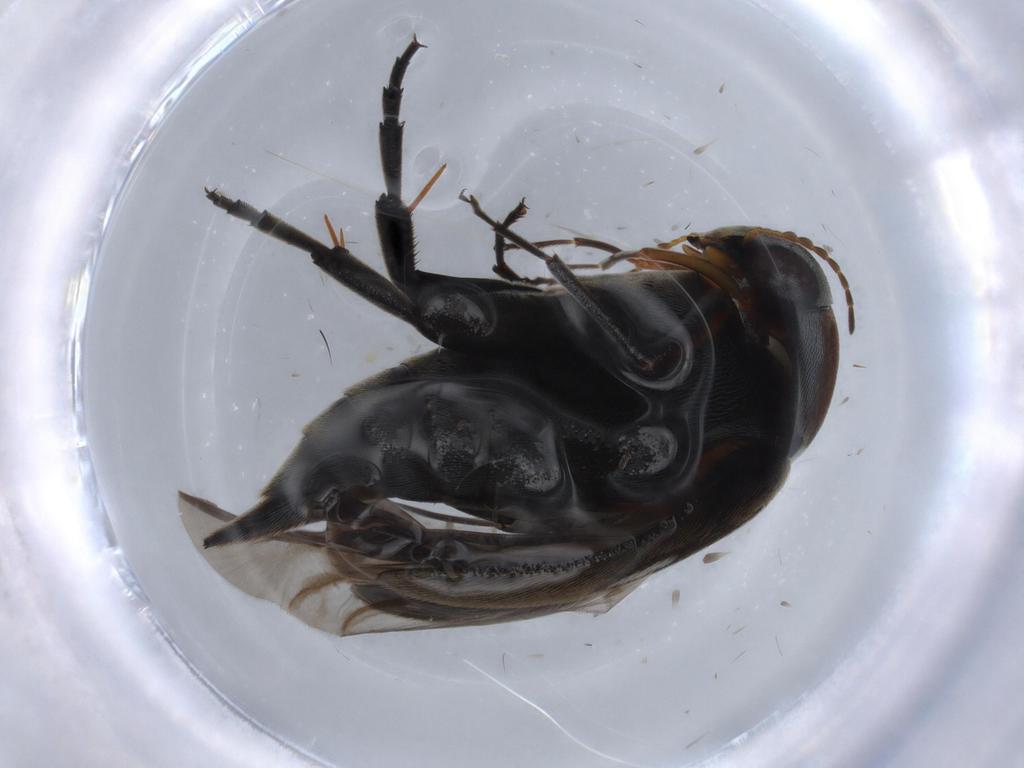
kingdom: Animalia
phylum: Arthropoda
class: Insecta
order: Coleoptera
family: Mordellidae
